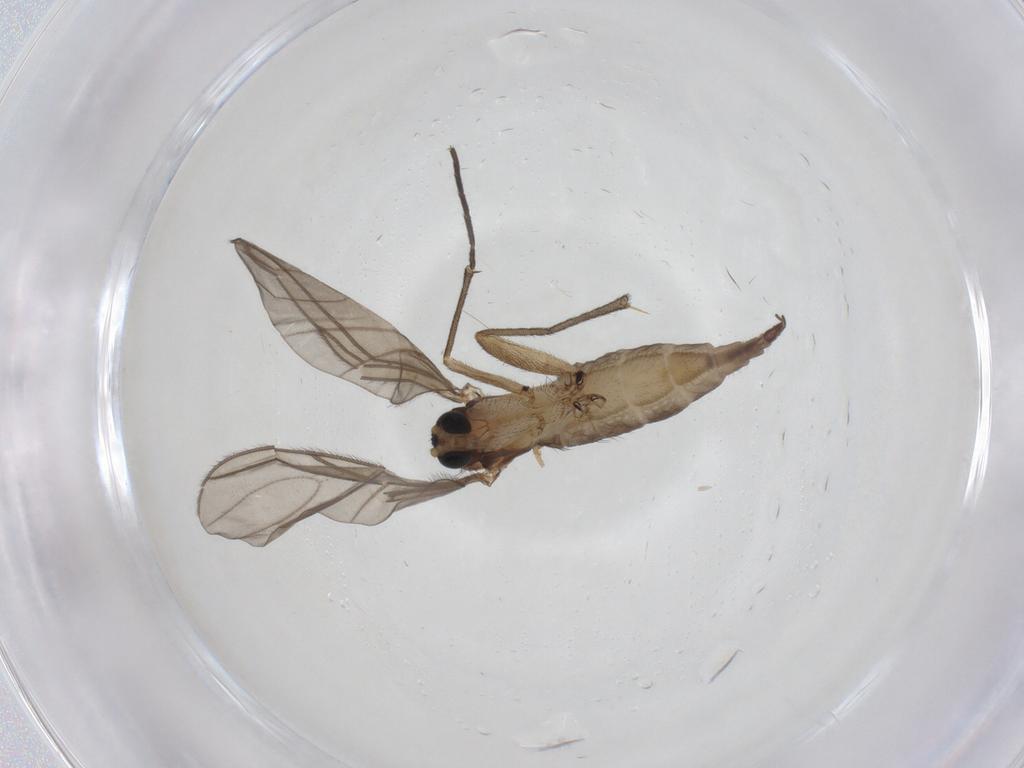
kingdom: Animalia
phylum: Arthropoda
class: Insecta
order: Diptera
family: Sciaridae
